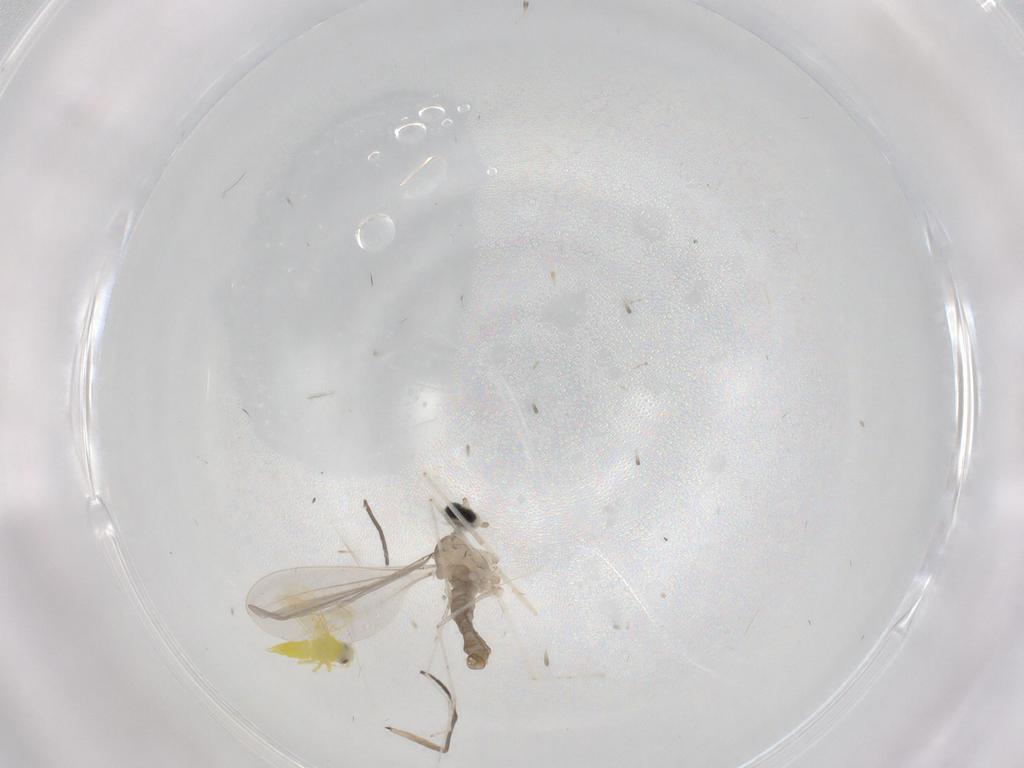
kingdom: Animalia
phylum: Arthropoda
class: Insecta
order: Diptera
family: Cecidomyiidae
